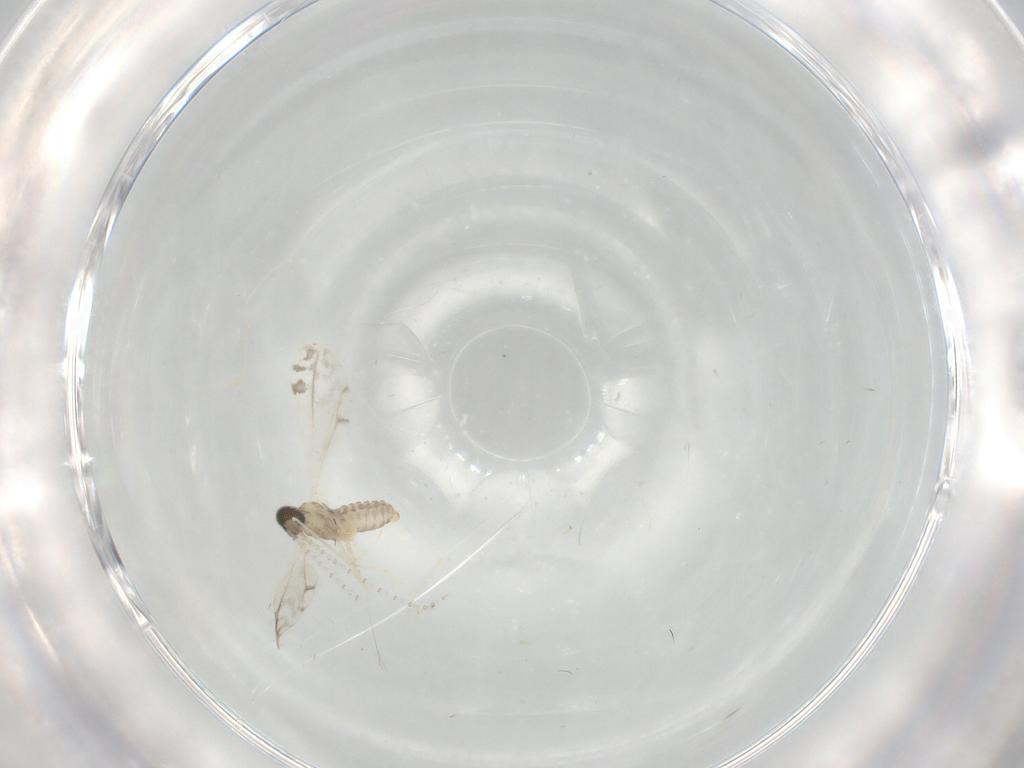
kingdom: Animalia
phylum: Arthropoda
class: Insecta
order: Diptera
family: Cecidomyiidae
